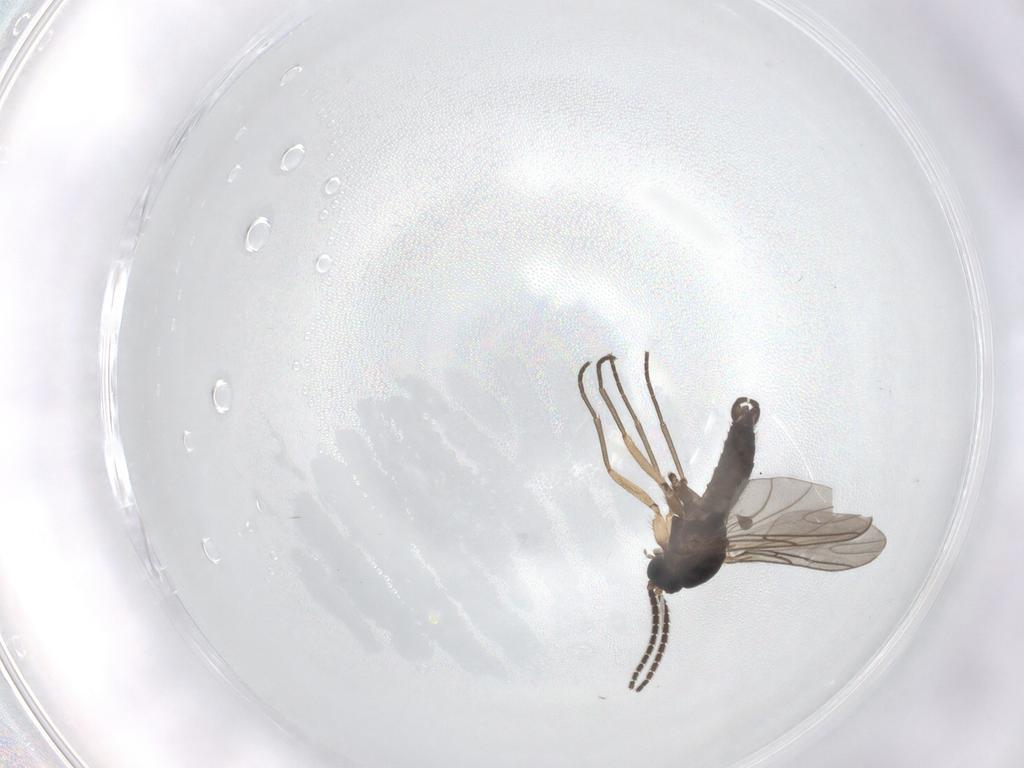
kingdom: Animalia
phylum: Arthropoda
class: Insecta
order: Diptera
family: Sciaridae
